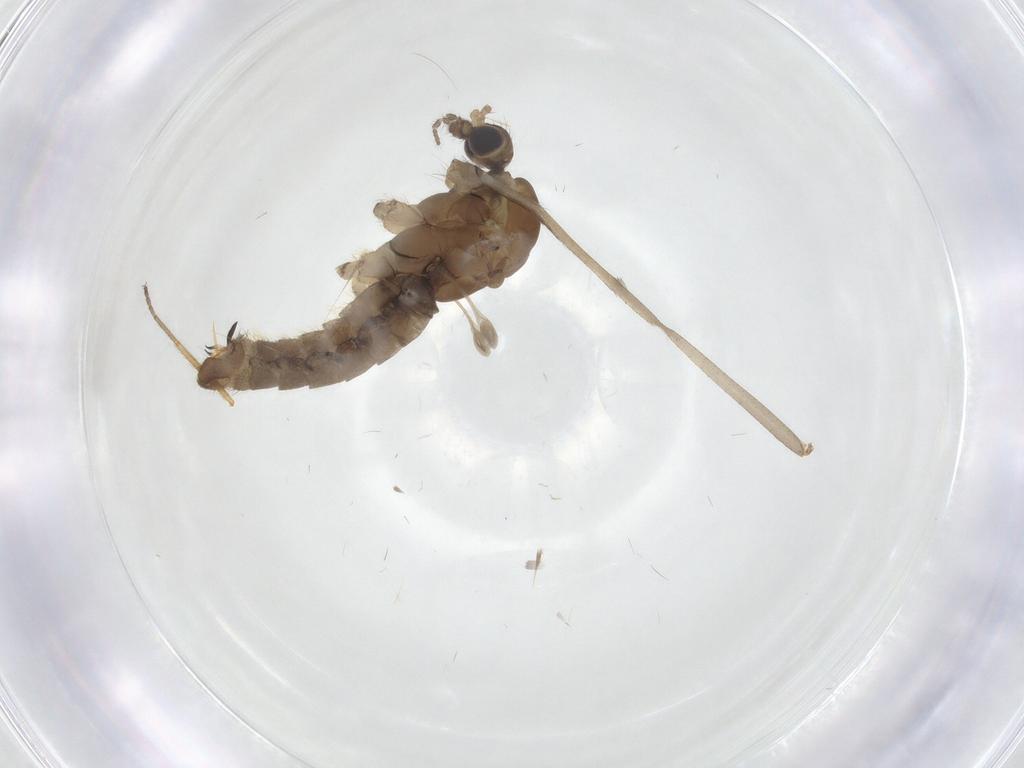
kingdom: Animalia
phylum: Arthropoda
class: Insecta
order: Diptera
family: Limoniidae
